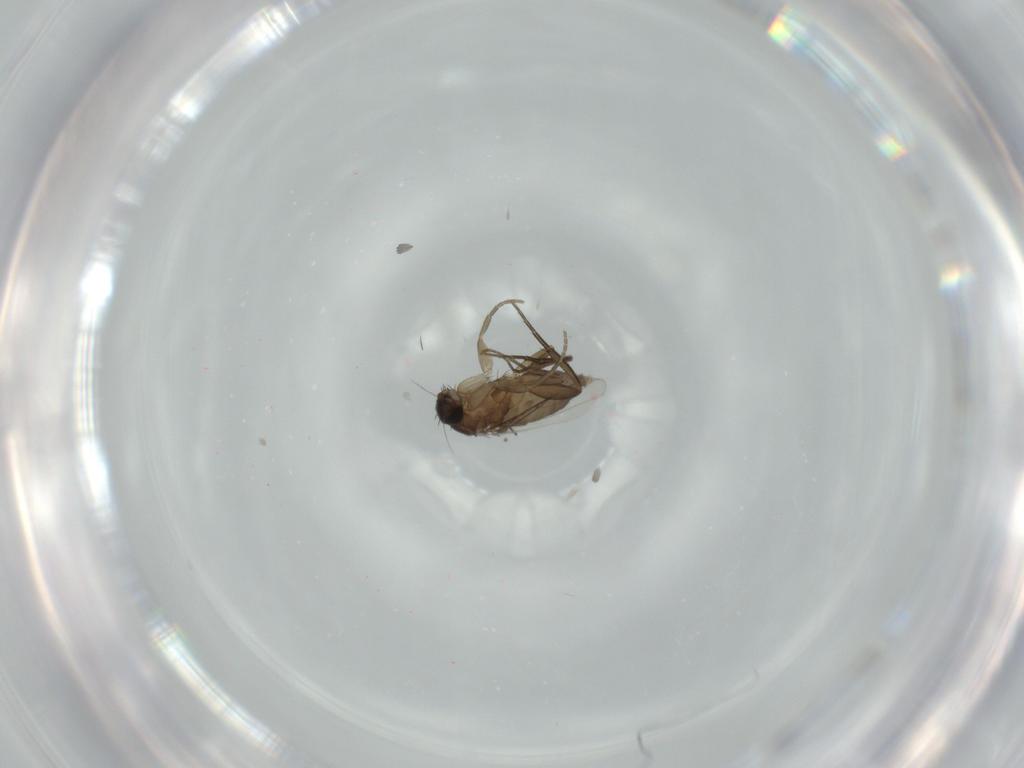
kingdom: Animalia
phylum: Arthropoda
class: Insecta
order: Diptera
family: Phoridae
